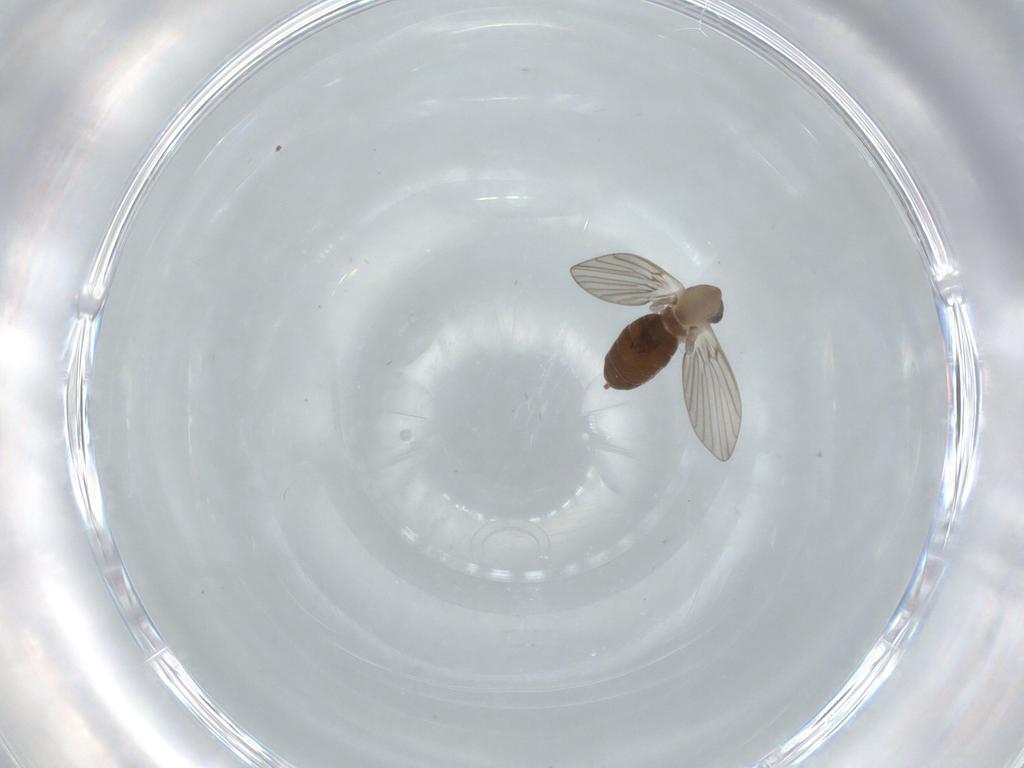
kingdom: Animalia
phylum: Arthropoda
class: Insecta
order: Diptera
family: Psychodidae
